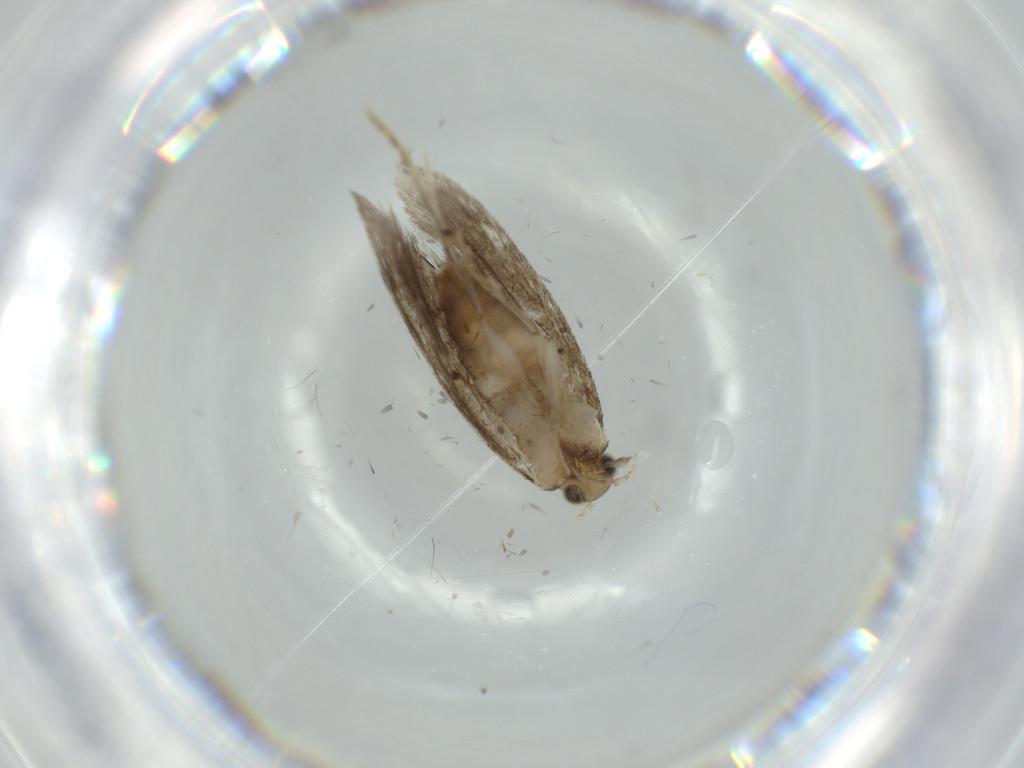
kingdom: Animalia
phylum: Arthropoda
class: Insecta
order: Lepidoptera
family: Tineidae
